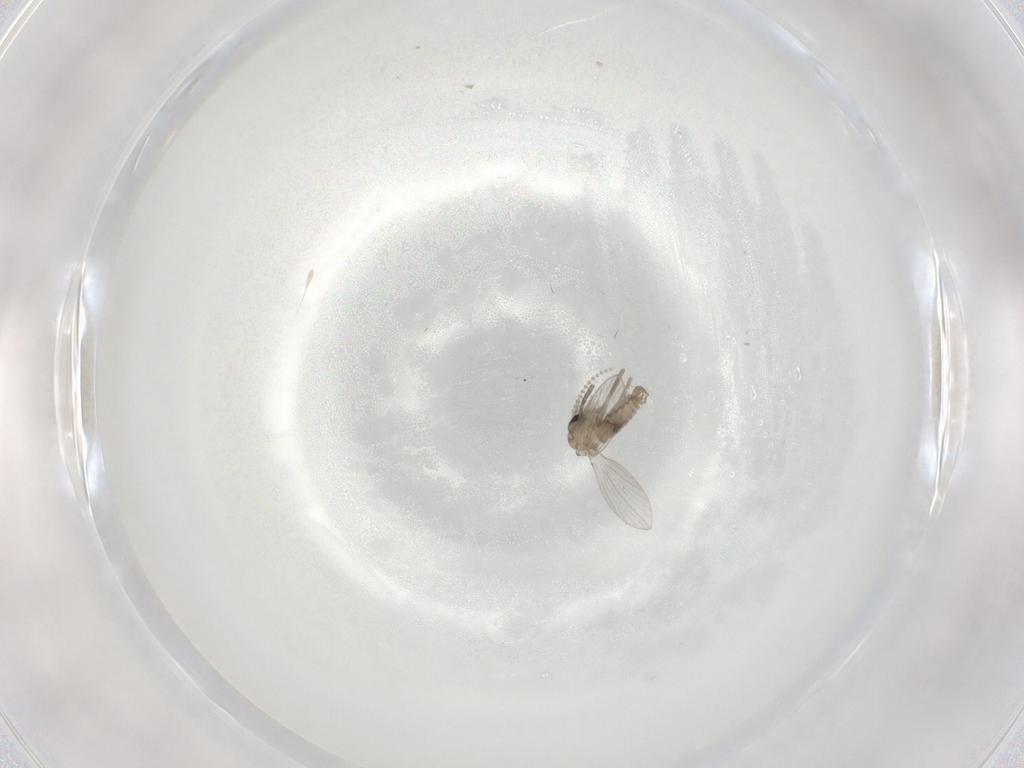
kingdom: Animalia
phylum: Arthropoda
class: Insecta
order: Diptera
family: Psychodidae
